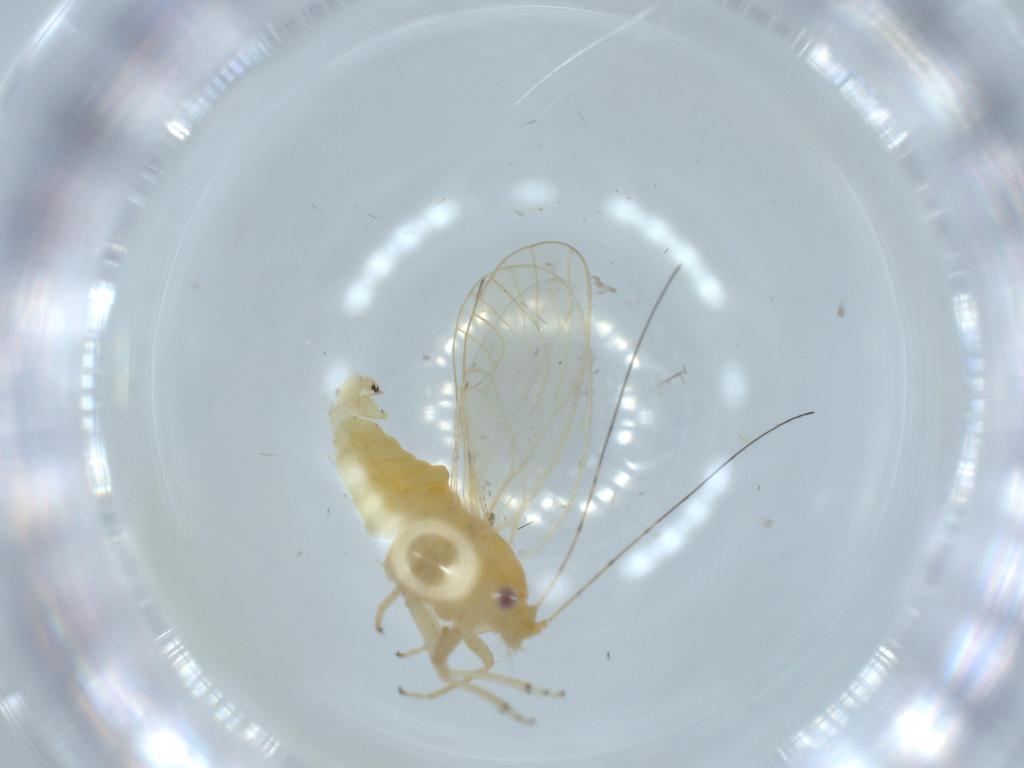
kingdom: Animalia
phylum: Arthropoda
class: Insecta
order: Hemiptera
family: Psyllidae
